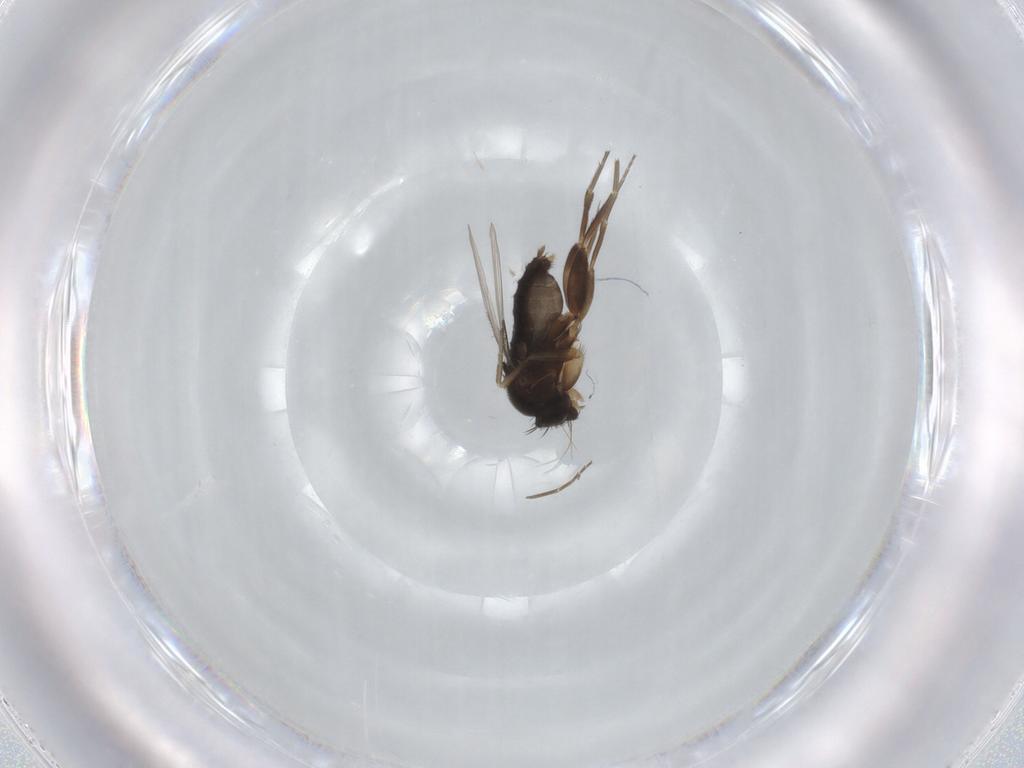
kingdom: Animalia
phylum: Arthropoda
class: Insecta
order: Diptera
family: Phoridae
